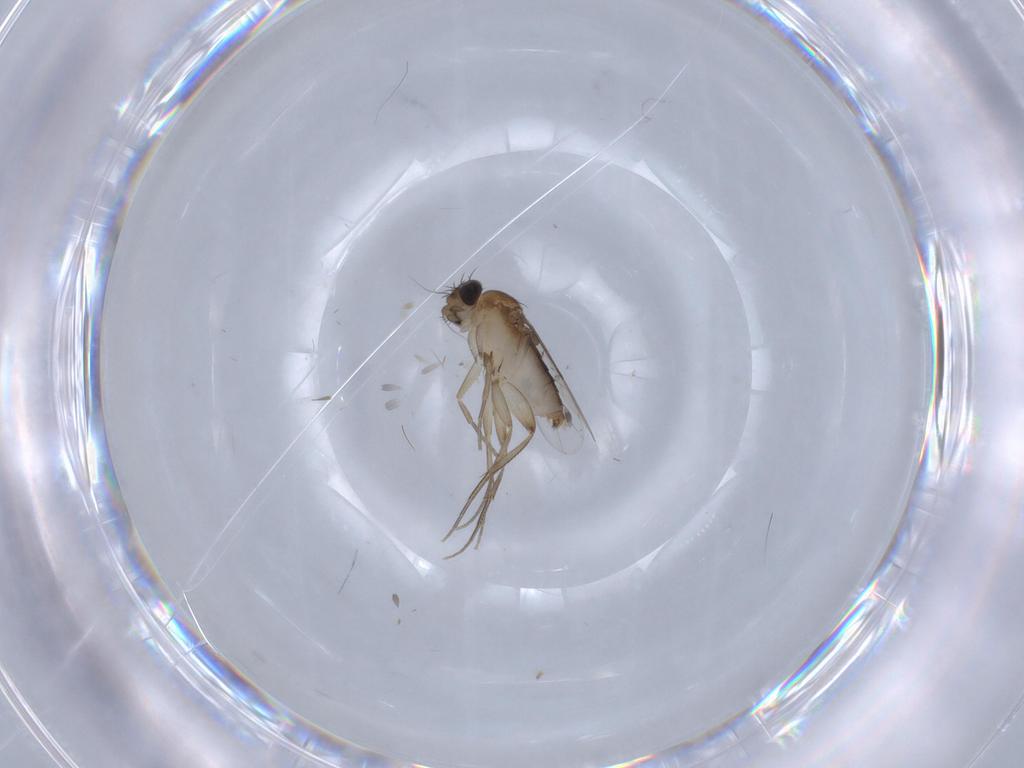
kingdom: Animalia
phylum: Arthropoda
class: Insecta
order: Diptera
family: Phoridae
